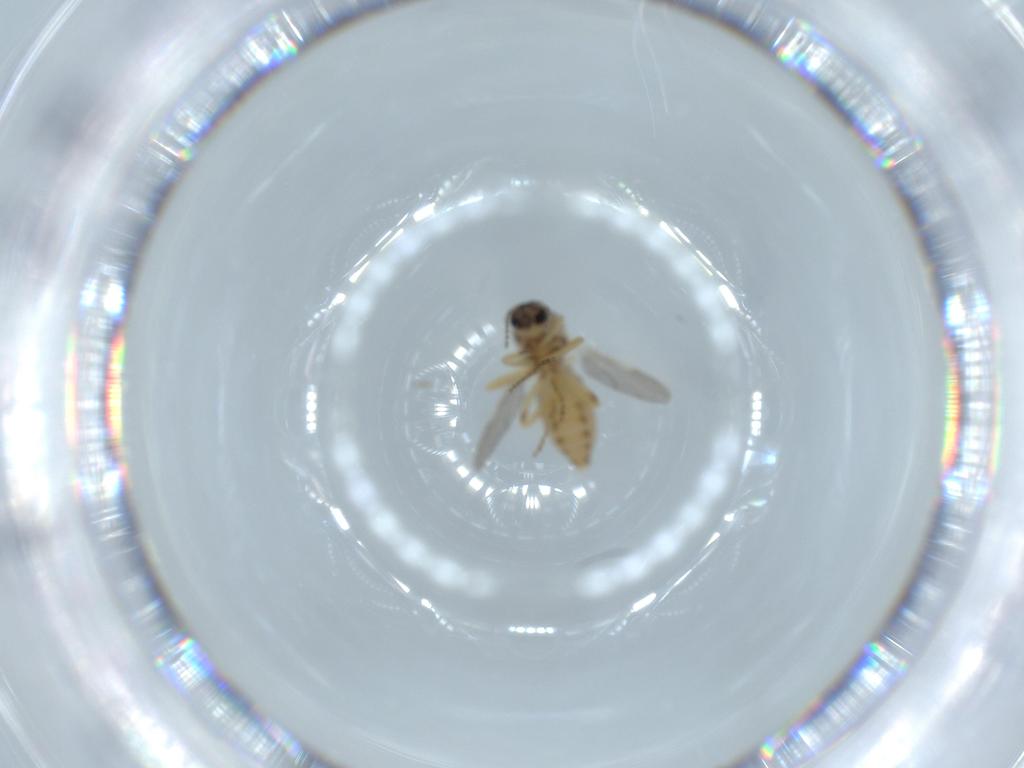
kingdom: Animalia
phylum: Arthropoda
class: Insecta
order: Diptera
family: Ceratopogonidae
